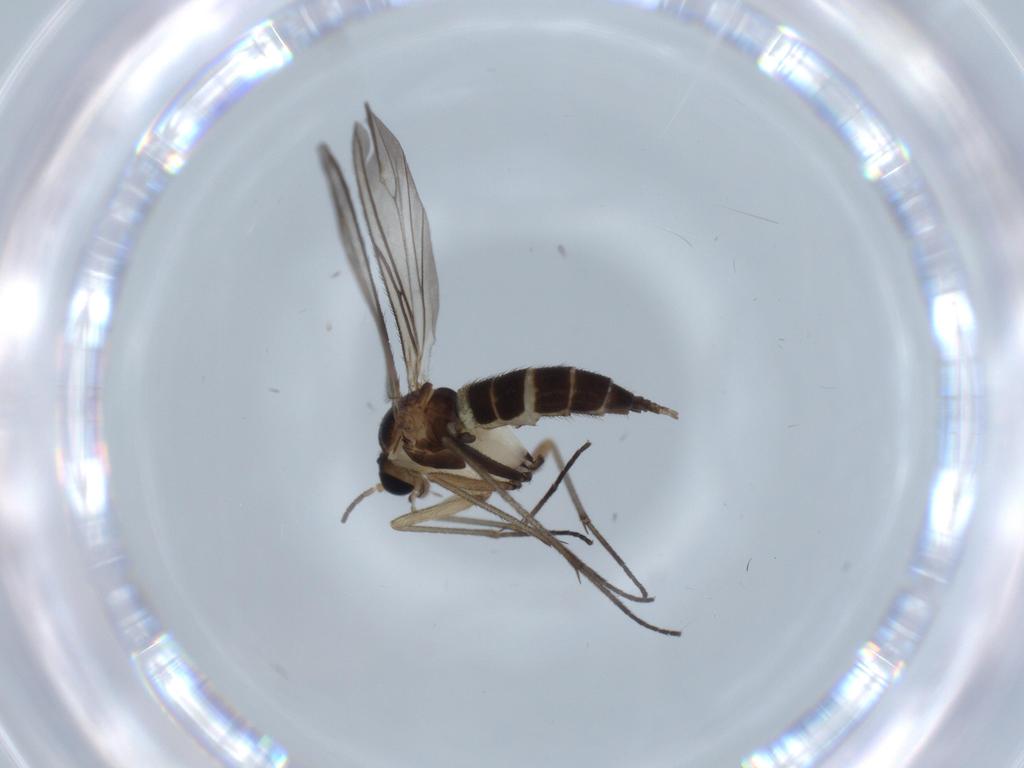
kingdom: Animalia
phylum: Arthropoda
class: Insecta
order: Diptera
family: Sciaridae
